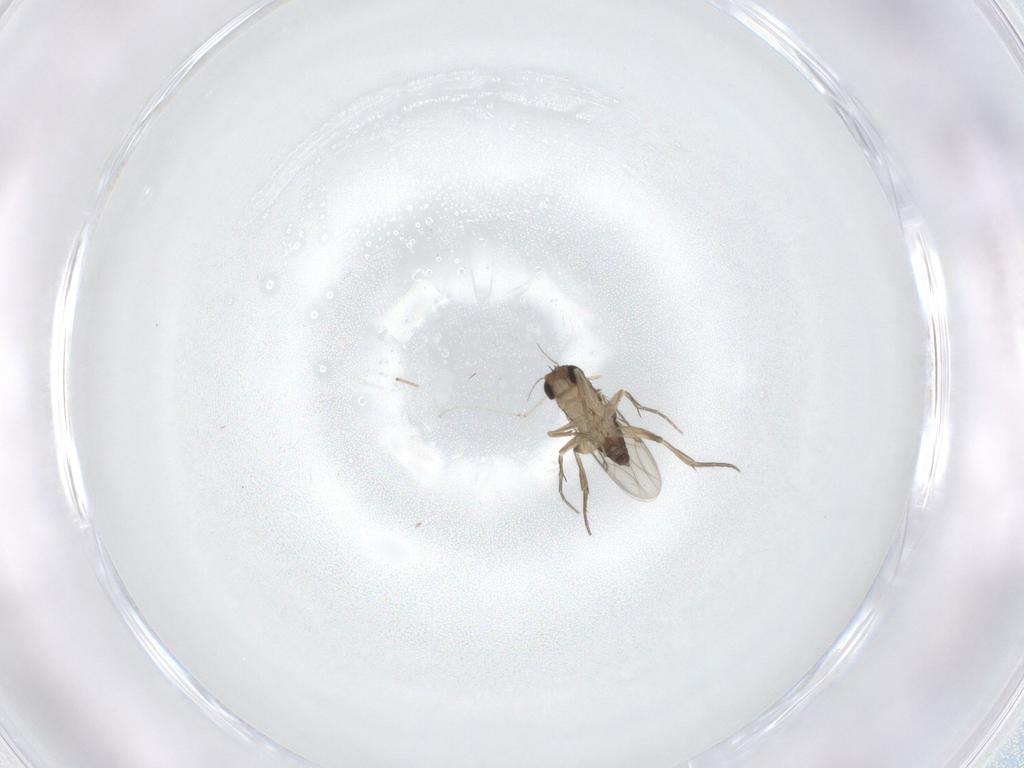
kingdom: Animalia
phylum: Arthropoda
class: Insecta
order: Diptera
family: Phoridae
